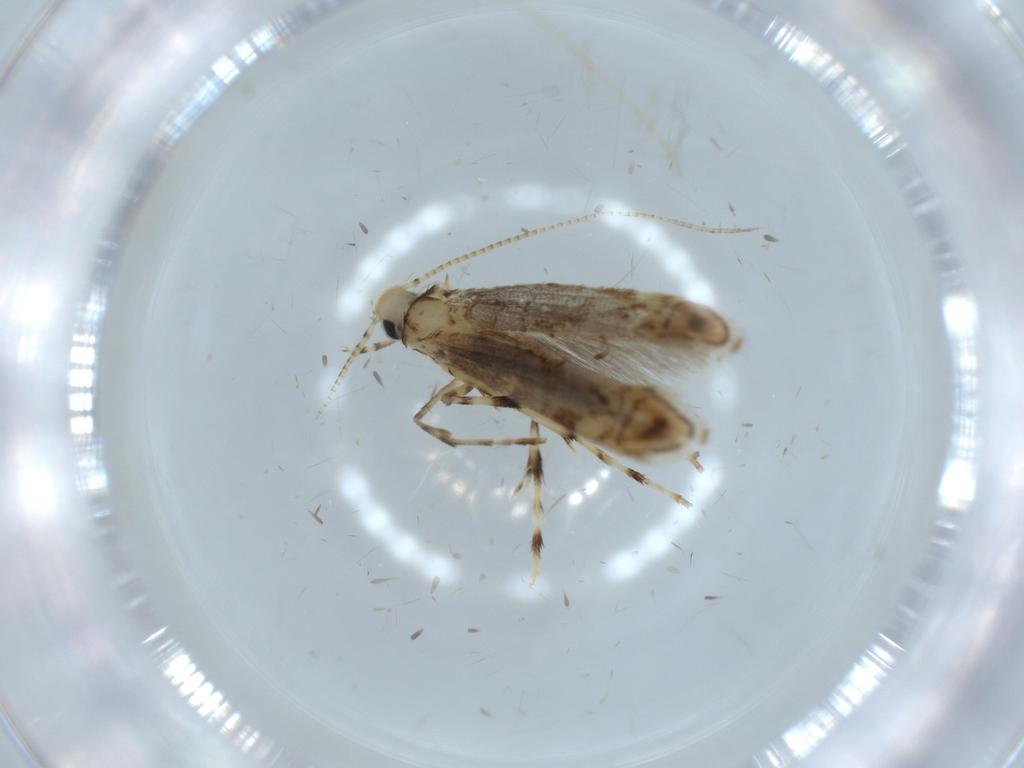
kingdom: Animalia
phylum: Arthropoda
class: Insecta
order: Lepidoptera
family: Gracillariidae
